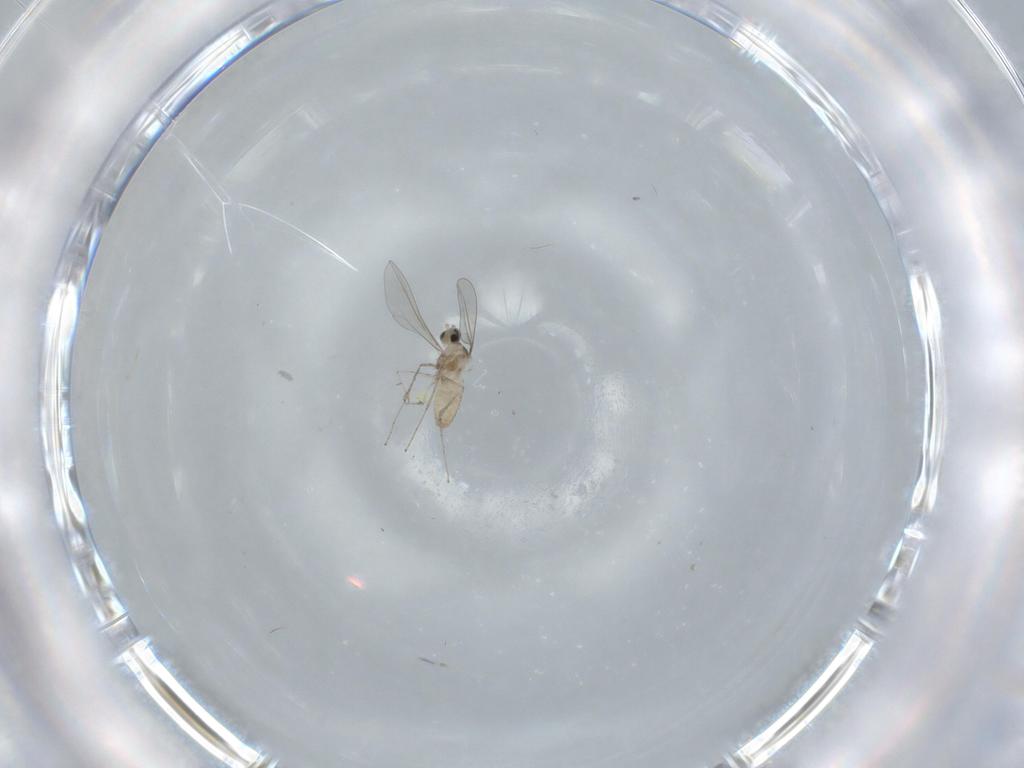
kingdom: Animalia
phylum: Arthropoda
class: Insecta
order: Diptera
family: Cecidomyiidae
